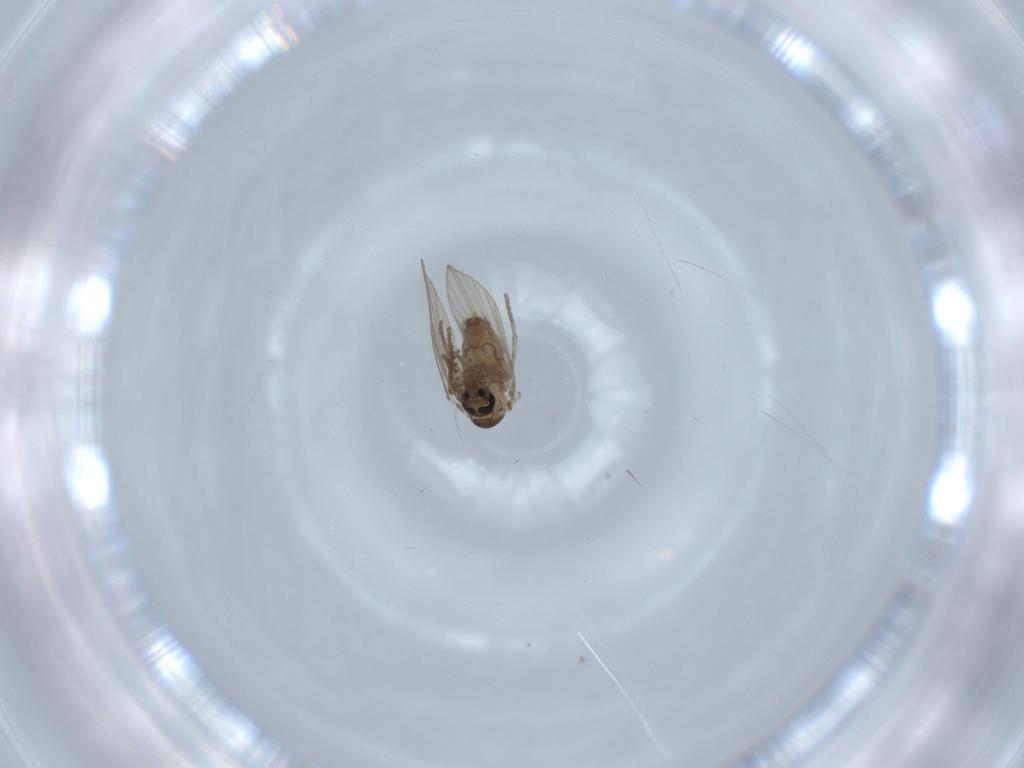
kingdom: Animalia
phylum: Arthropoda
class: Insecta
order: Diptera
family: Psychodidae
